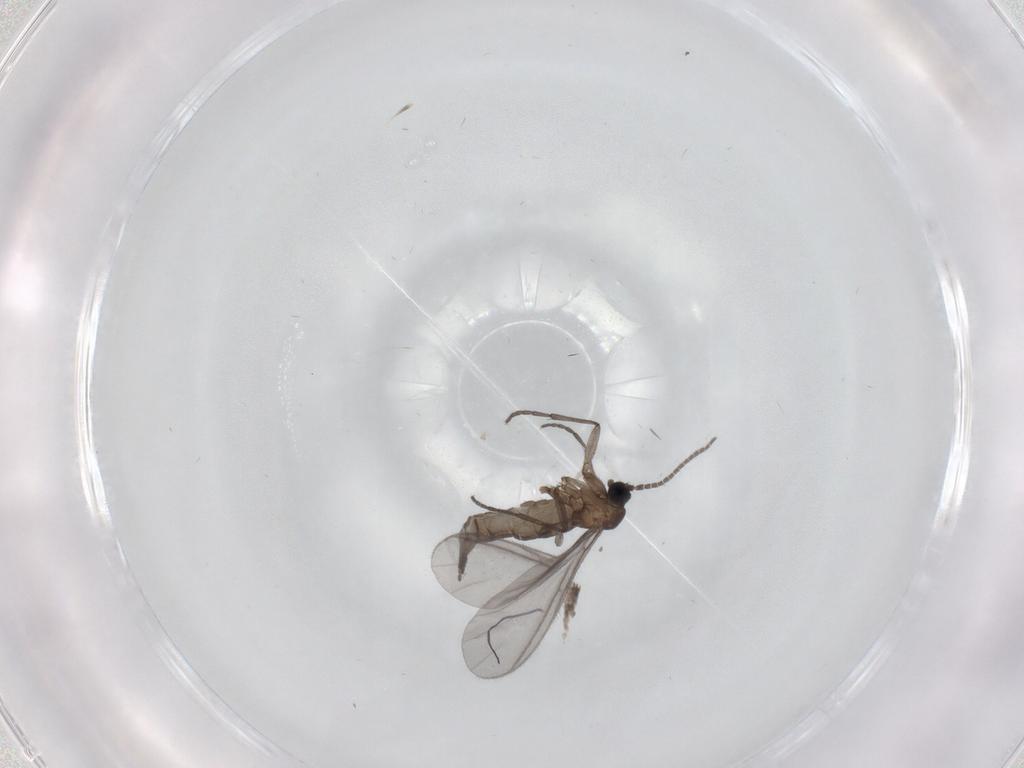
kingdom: Animalia
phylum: Arthropoda
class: Insecta
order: Diptera
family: Sciaridae
